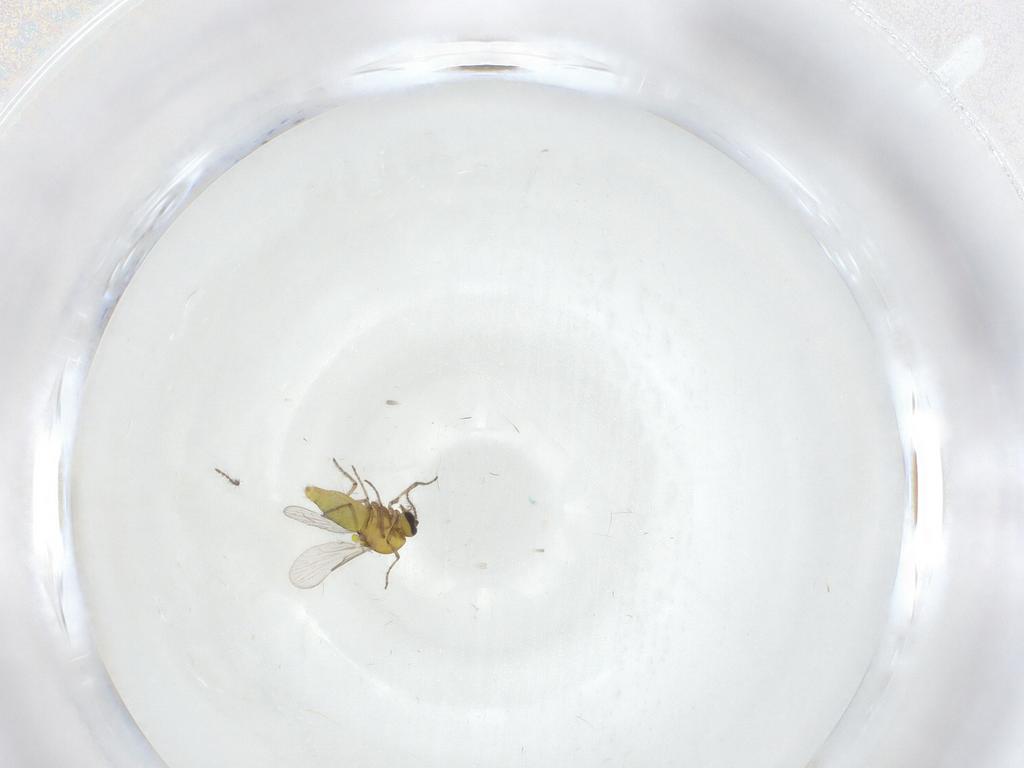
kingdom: Animalia
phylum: Arthropoda
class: Insecta
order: Diptera
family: Ceratopogonidae
